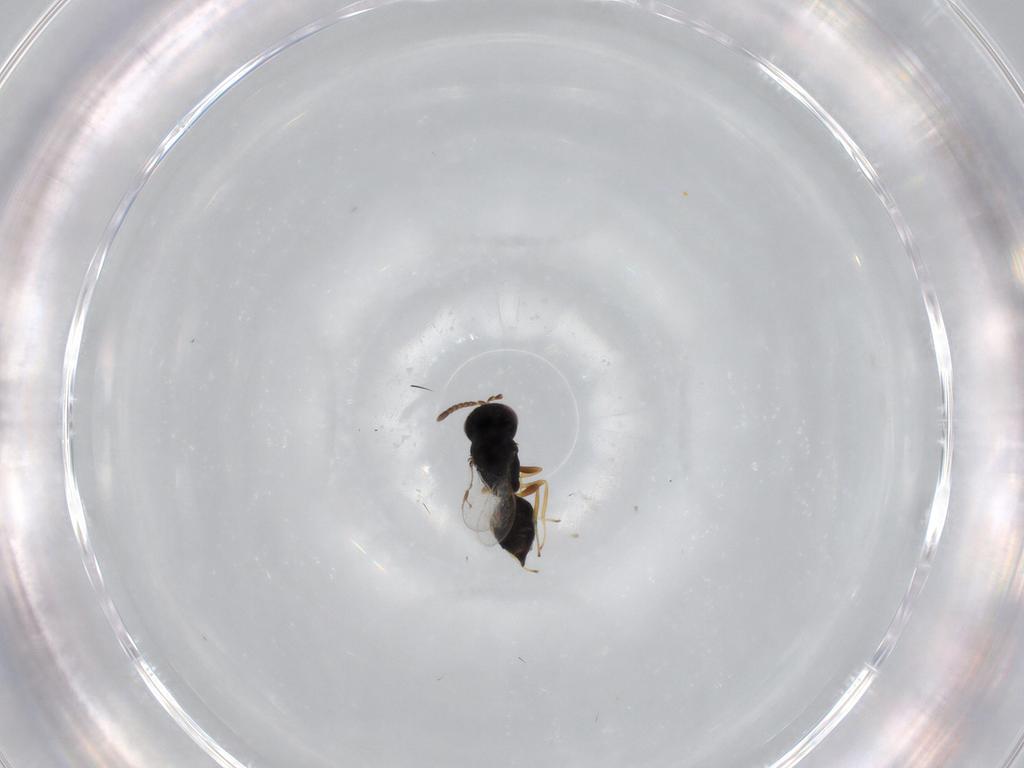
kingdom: Animalia
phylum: Arthropoda
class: Insecta
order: Hymenoptera
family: Pteromalidae
